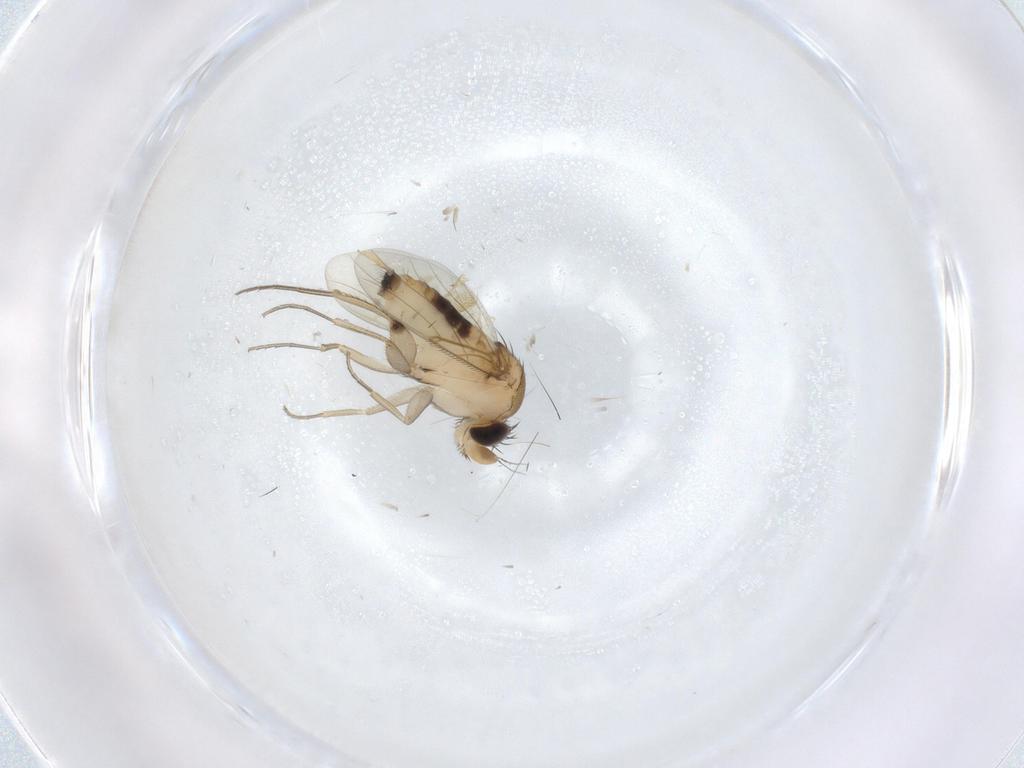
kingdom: Animalia
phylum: Arthropoda
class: Insecta
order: Diptera
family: Phoridae
